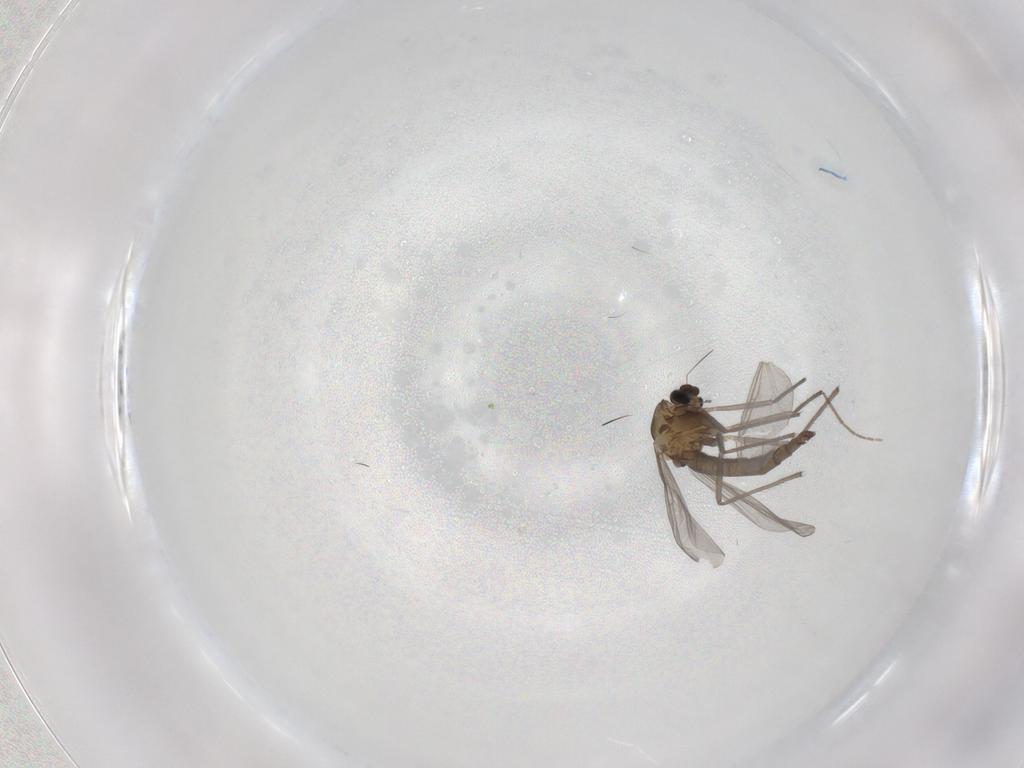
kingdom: Animalia
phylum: Arthropoda
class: Insecta
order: Diptera
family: Chironomidae
